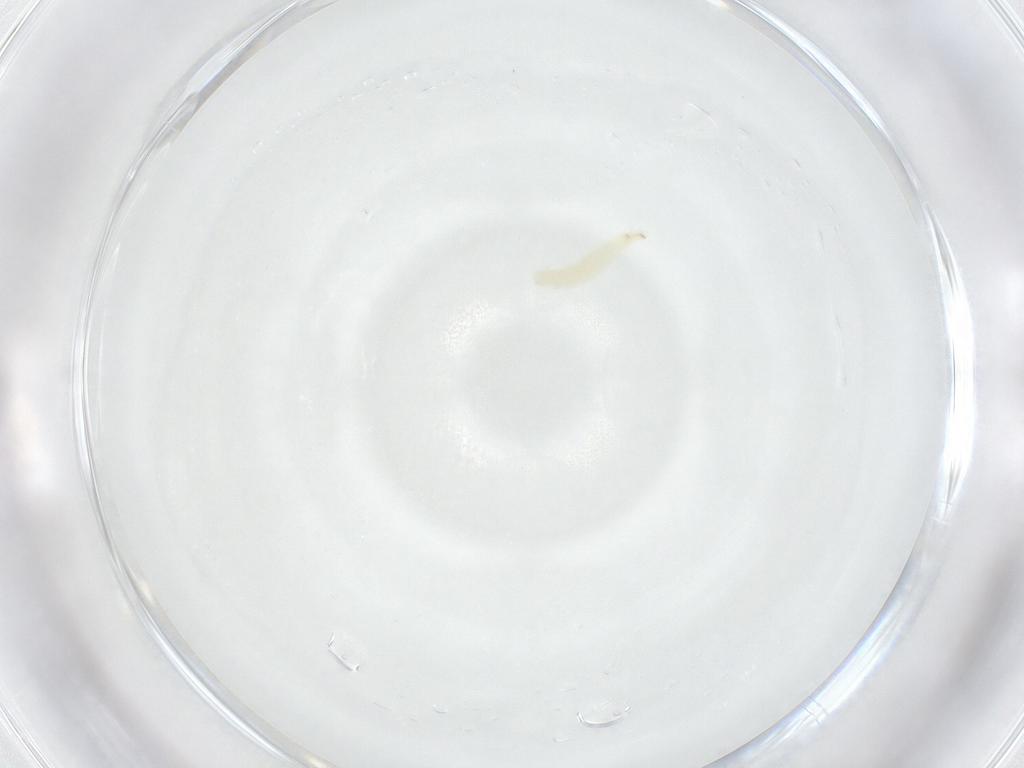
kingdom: Animalia
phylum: Arthropoda
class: Insecta
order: Diptera
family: Sarcophagidae
